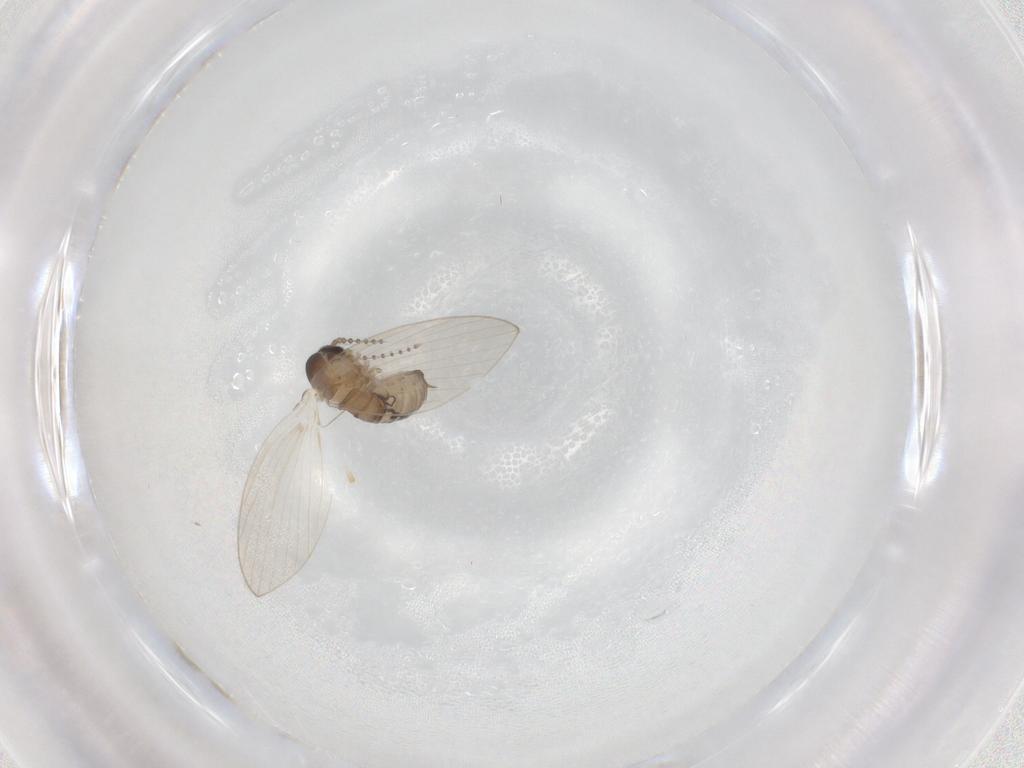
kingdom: Animalia
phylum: Arthropoda
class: Insecta
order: Diptera
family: Psychodidae
